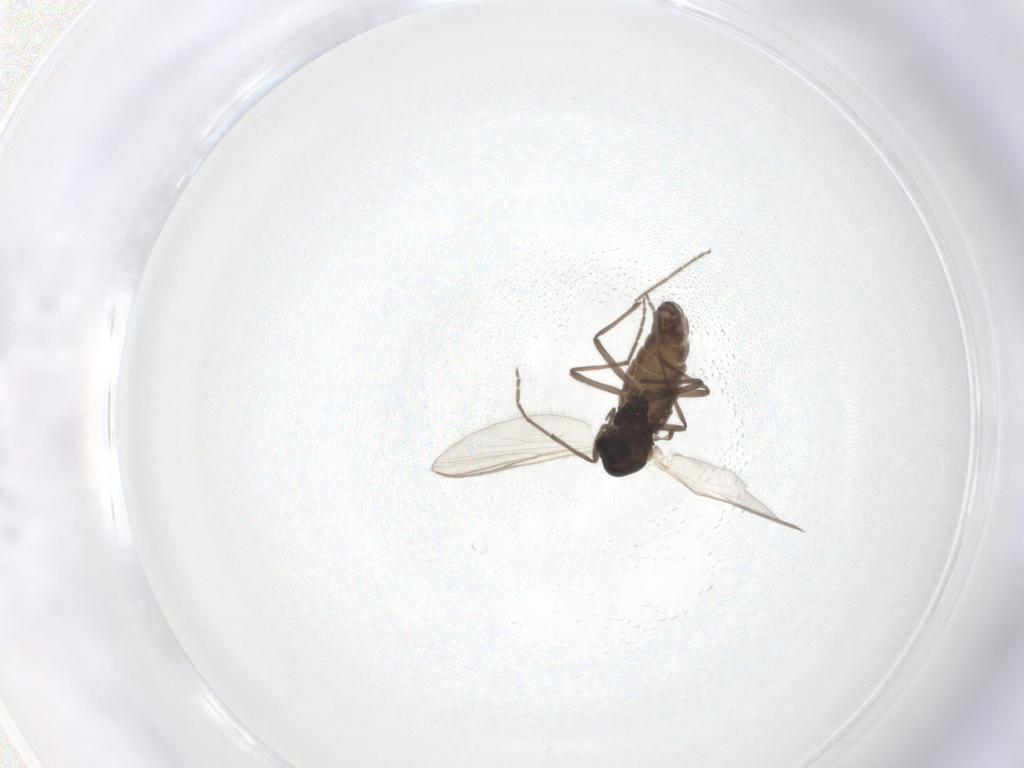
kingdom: Animalia
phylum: Arthropoda
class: Insecta
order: Diptera
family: Chironomidae
